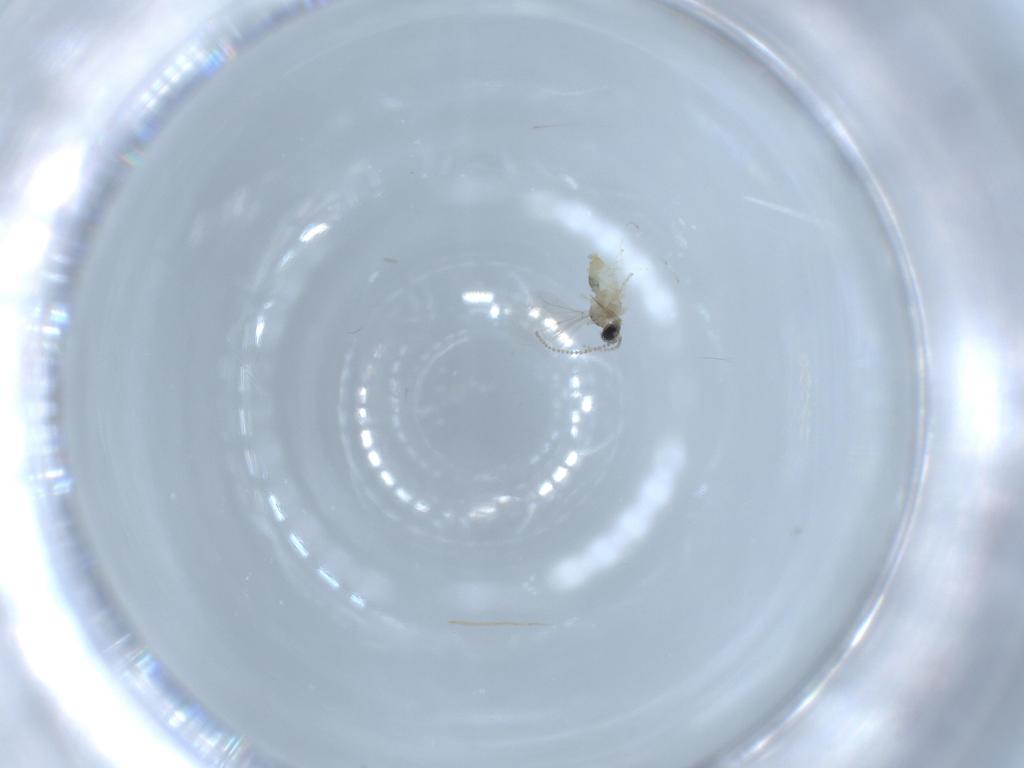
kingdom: Animalia
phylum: Arthropoda
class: Insecta
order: Diptera
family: Cecidomyiidae
